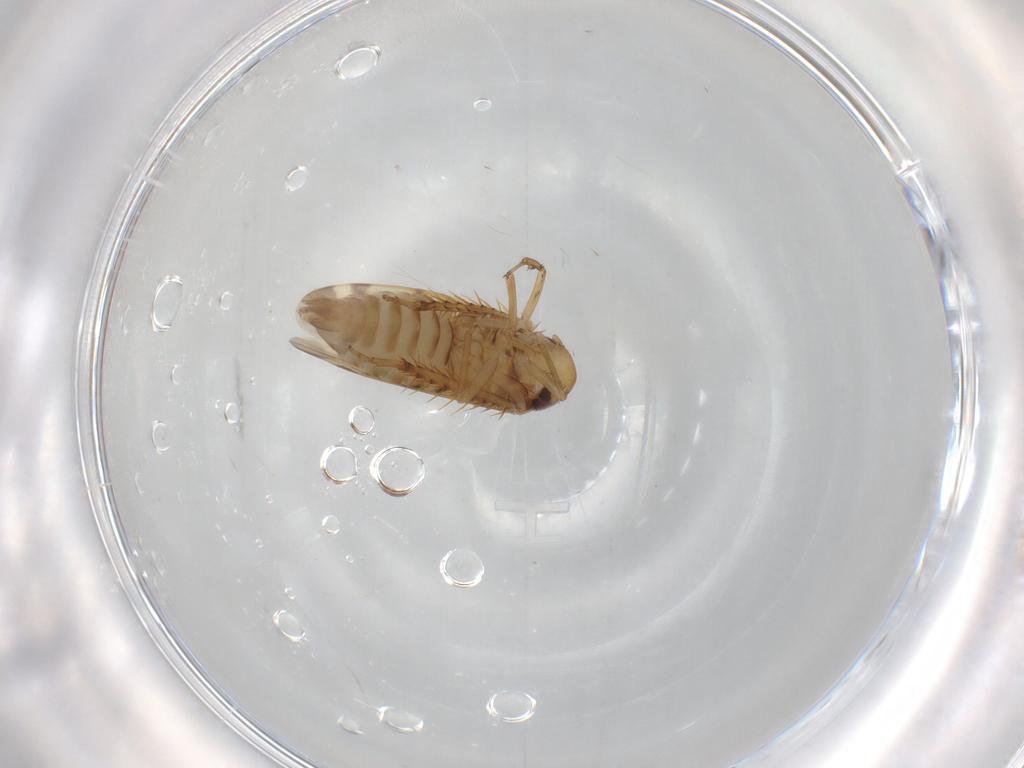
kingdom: Animalia
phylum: Arthropoda
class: Insecta
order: Hemiptera
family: Cicadellidae
